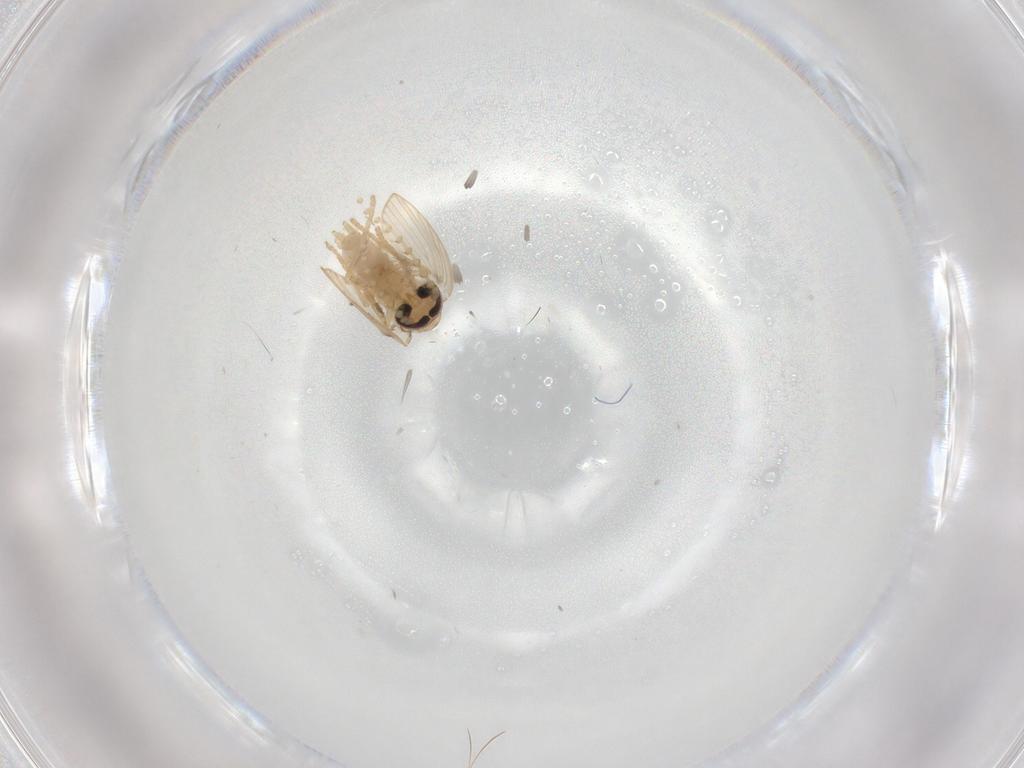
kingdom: Animalia
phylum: Arthropoda
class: Insecta
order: Diptera
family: Psychodidae
